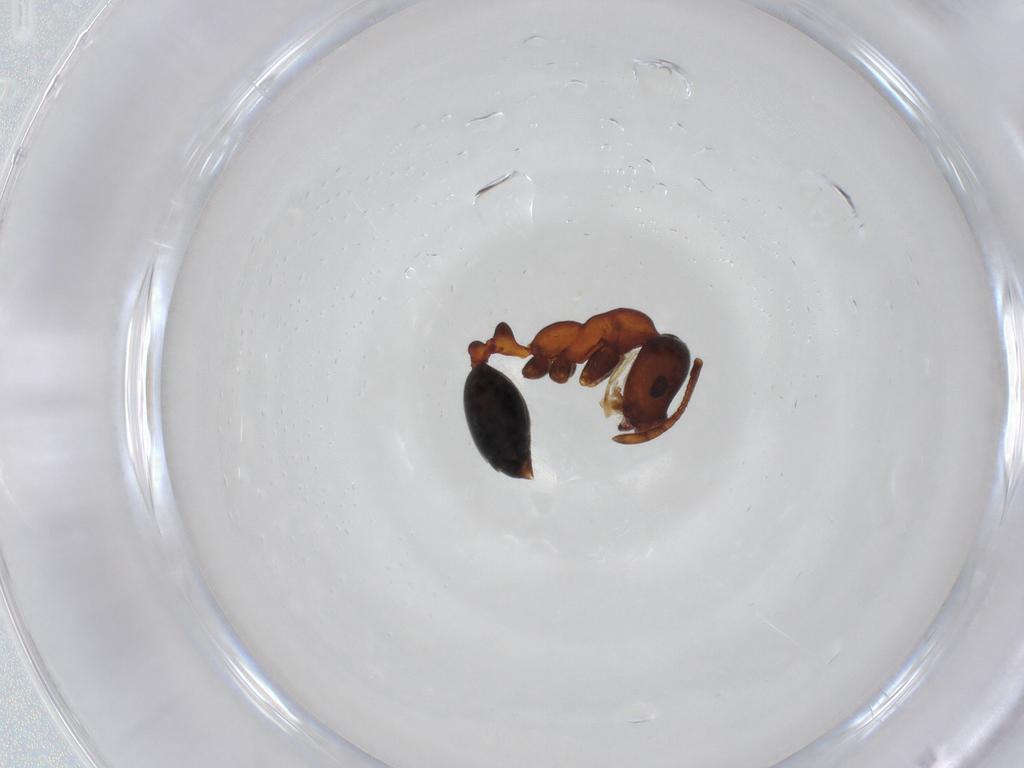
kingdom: Animalia
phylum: Arthropoda
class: Insecta
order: Hymenoptera
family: Formicidae
